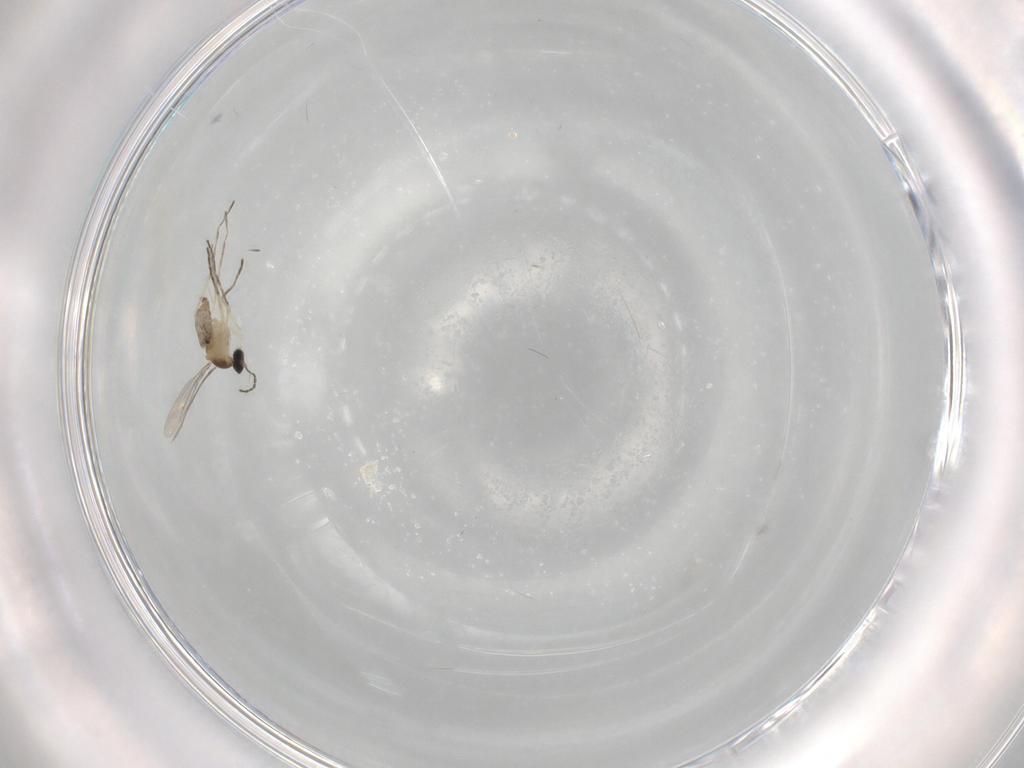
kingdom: Animalia
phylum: Arthropoda
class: Insecta
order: Diptera
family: Cecidomyiidae
